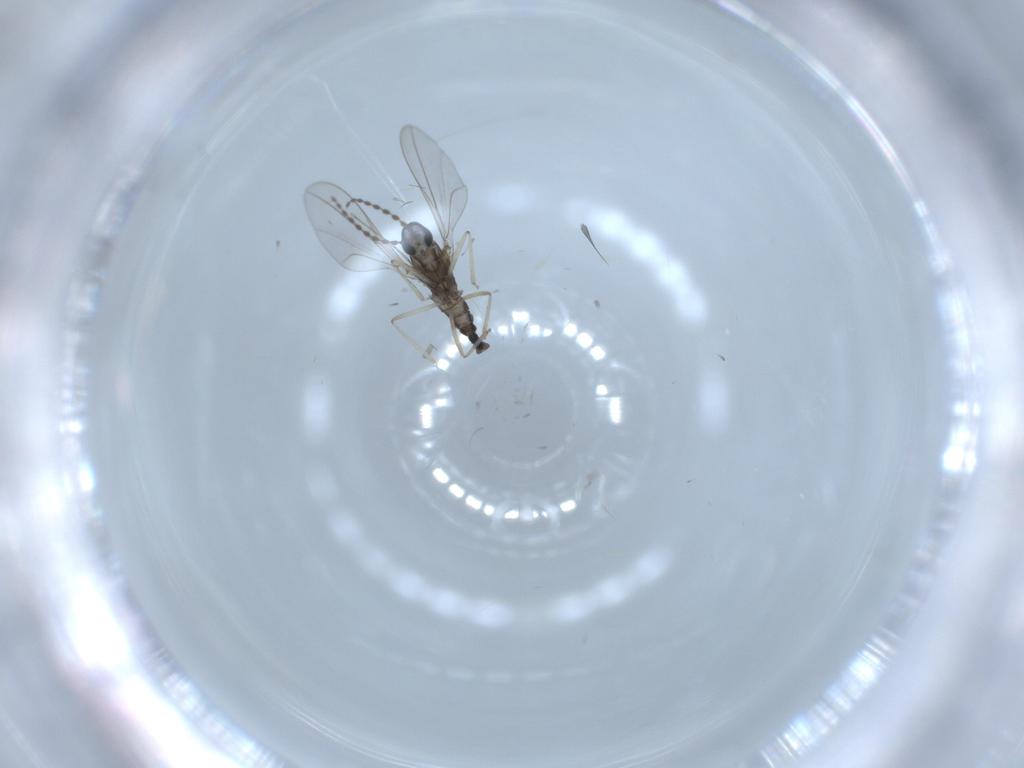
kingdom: Animalia
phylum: Arthropoda
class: Insecta
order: Diptera
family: Cecidomyiidae
